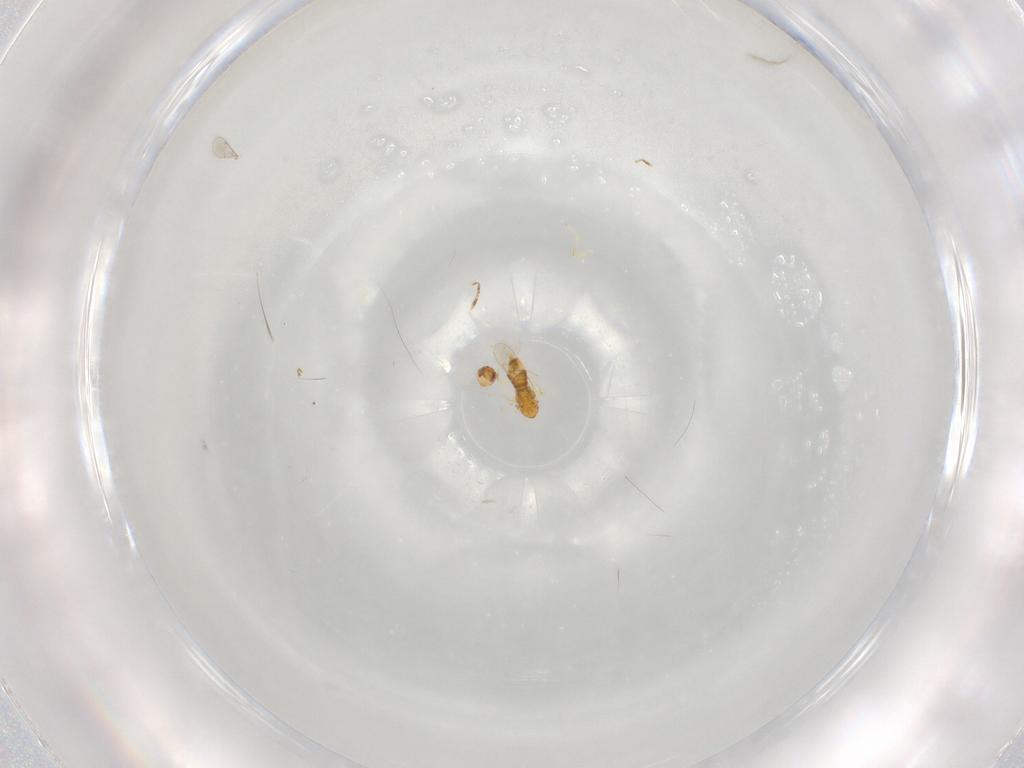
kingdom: Animalia
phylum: Arthropoda
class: Insecta
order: Hymenoptera
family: Aphelinidae
